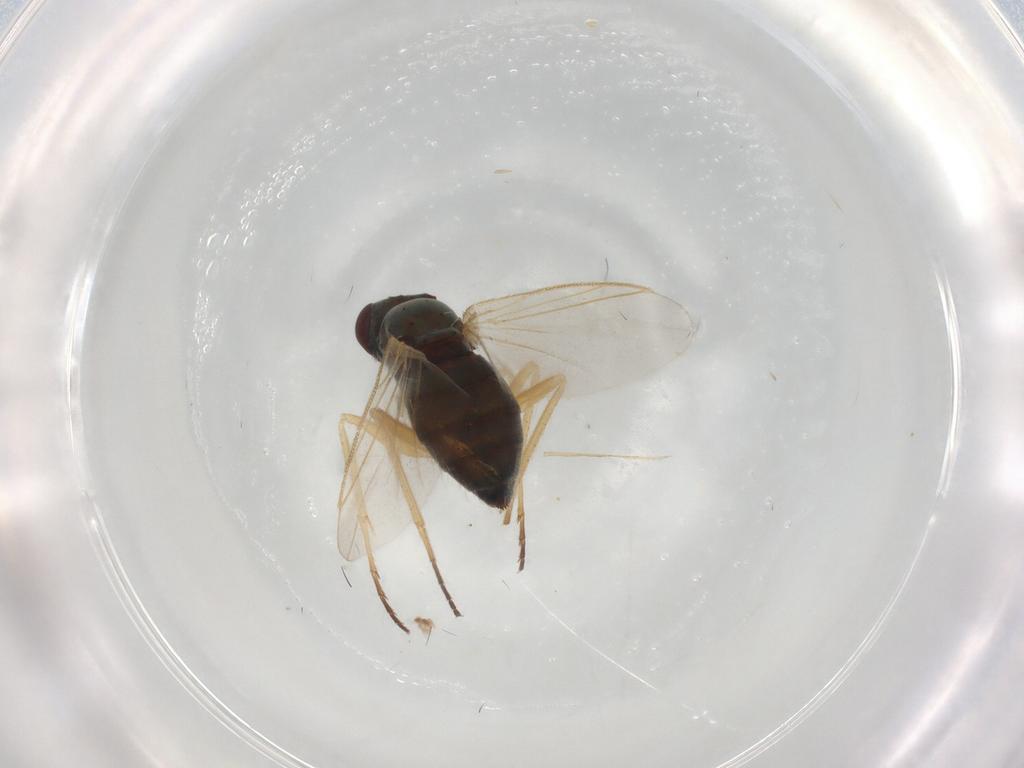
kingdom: Animalia
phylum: Arthropoda
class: Insecta
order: Diptera
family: Dolichopodidae
